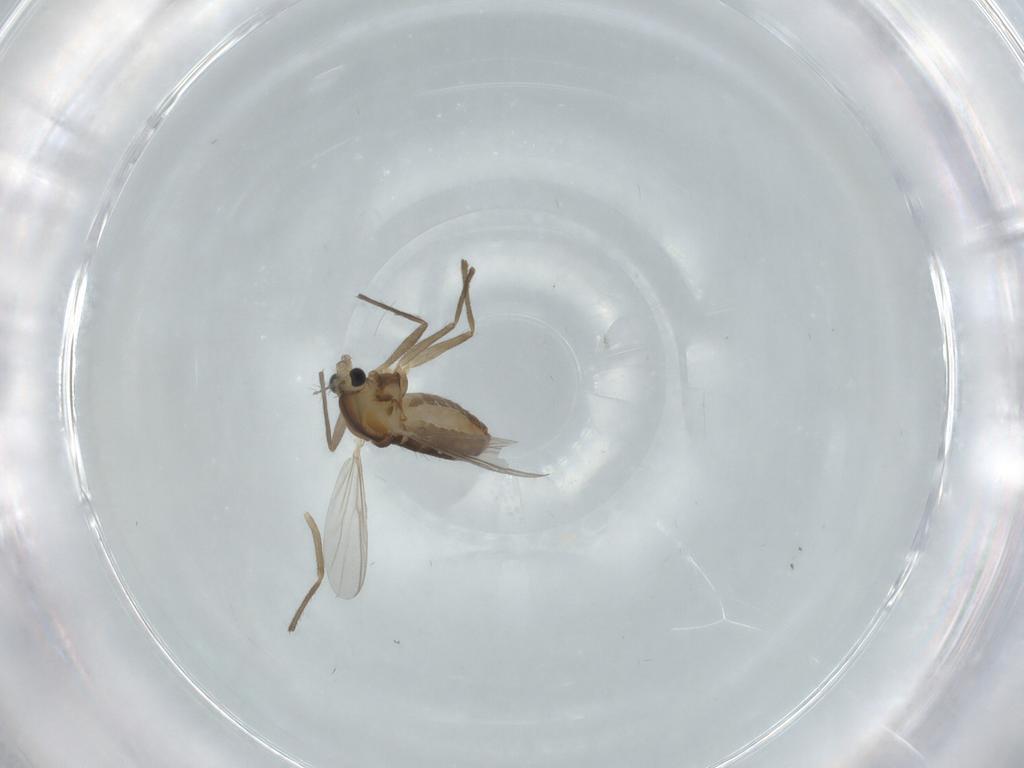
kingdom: Animalia
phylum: Arthropoda
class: Insecta
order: Diptera
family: Chironomidae
